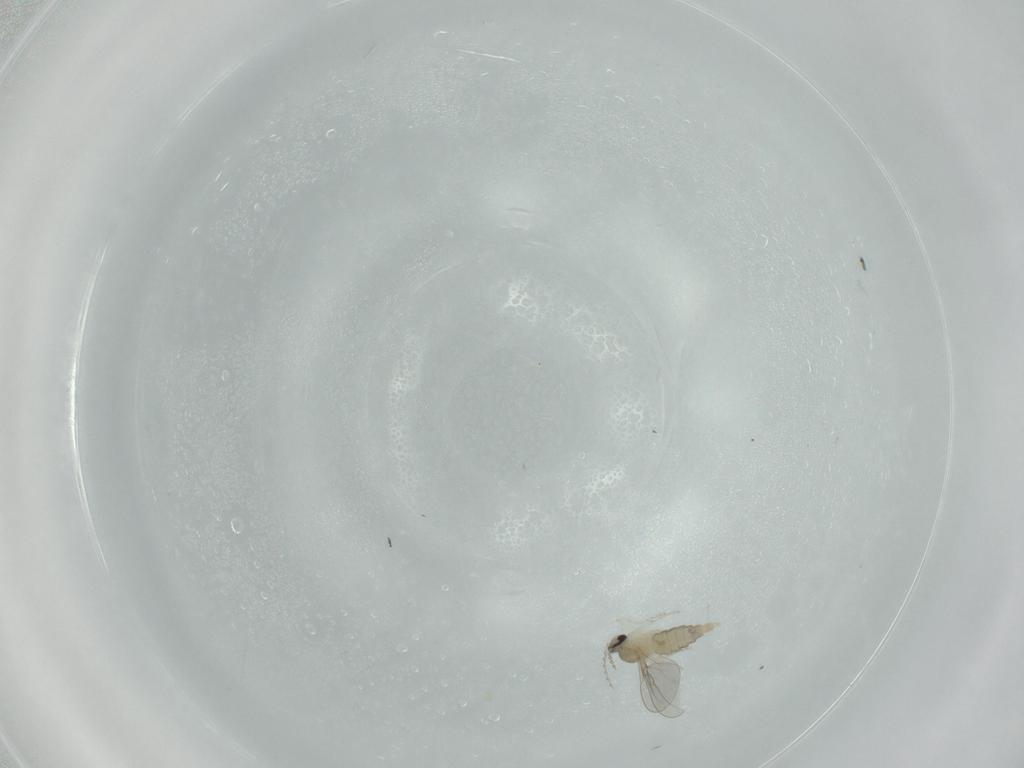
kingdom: Animalia
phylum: Arthropoda
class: Insecta
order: Diptera
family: Cecidomyiidae
